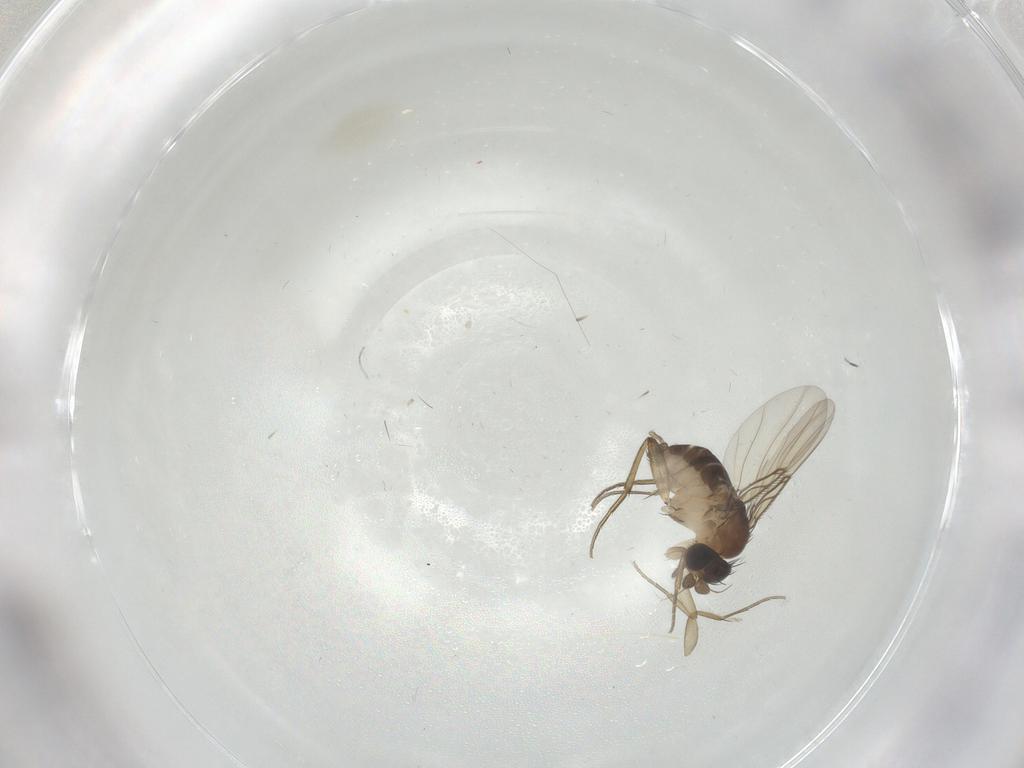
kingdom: Animalia
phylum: Arthropoda
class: Insecta
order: Diptera
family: Phoridae
